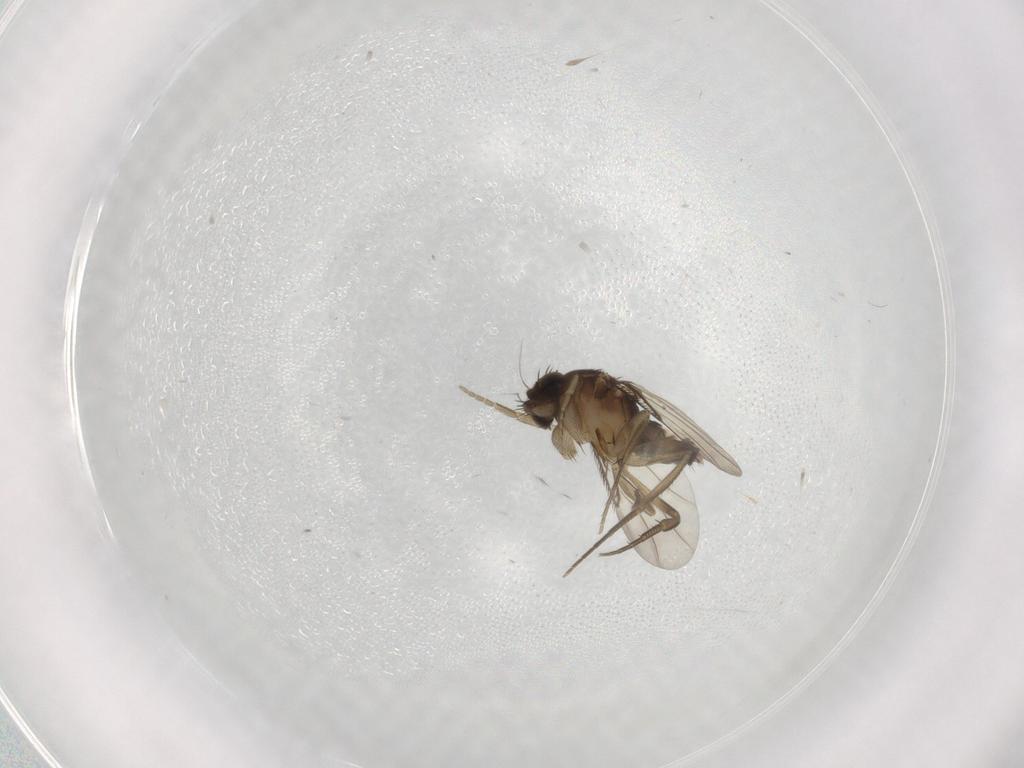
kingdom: Animalia
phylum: Arthropoda
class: Insecta
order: Diptera
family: Phoridae
